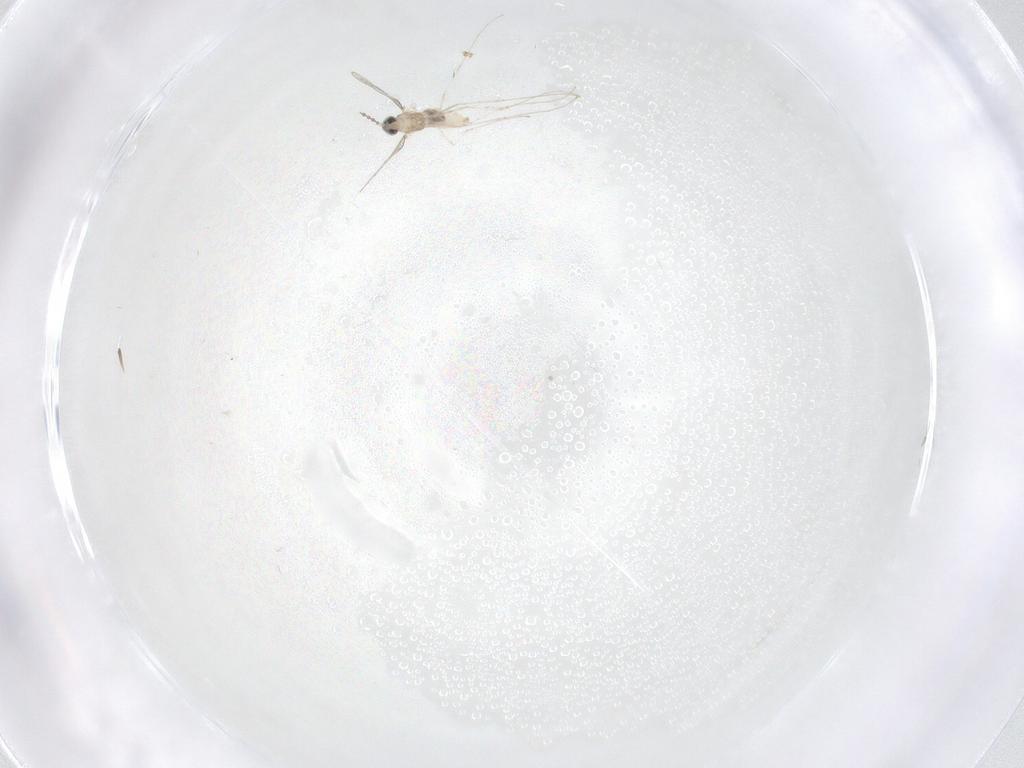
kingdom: Animalia
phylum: Arthropoda
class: Insecta
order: Diptera
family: Cecidomyiidae
